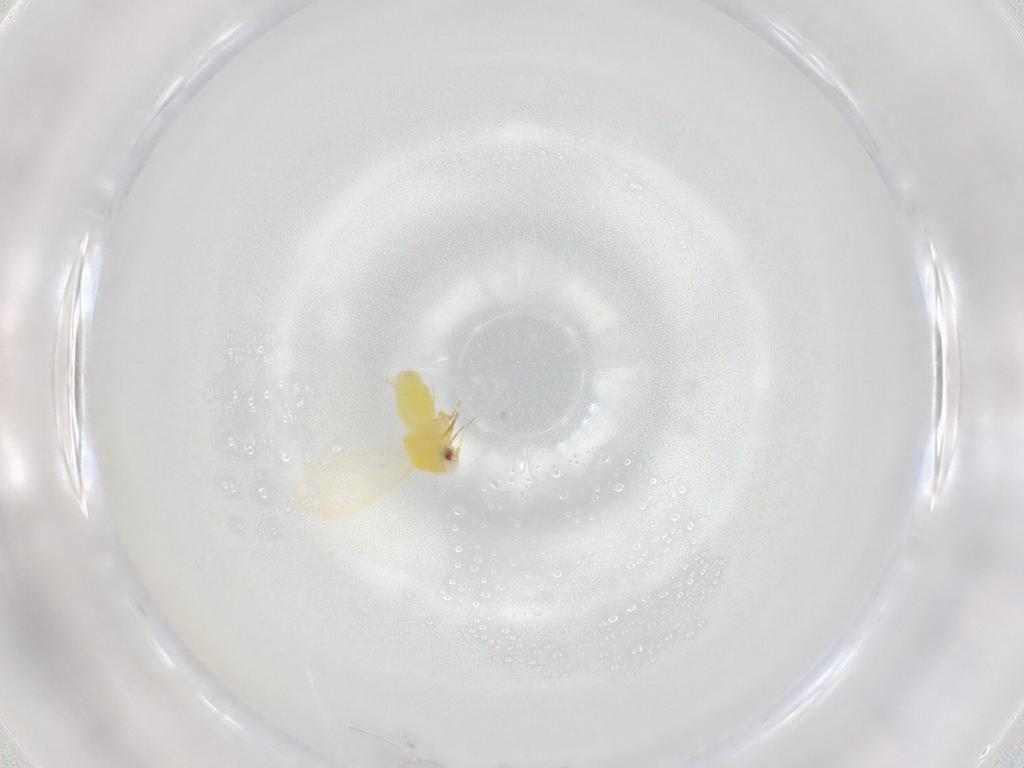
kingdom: Animalia
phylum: Arthropoda
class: Insecta
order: Hemiptera
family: Aleyrodidae
